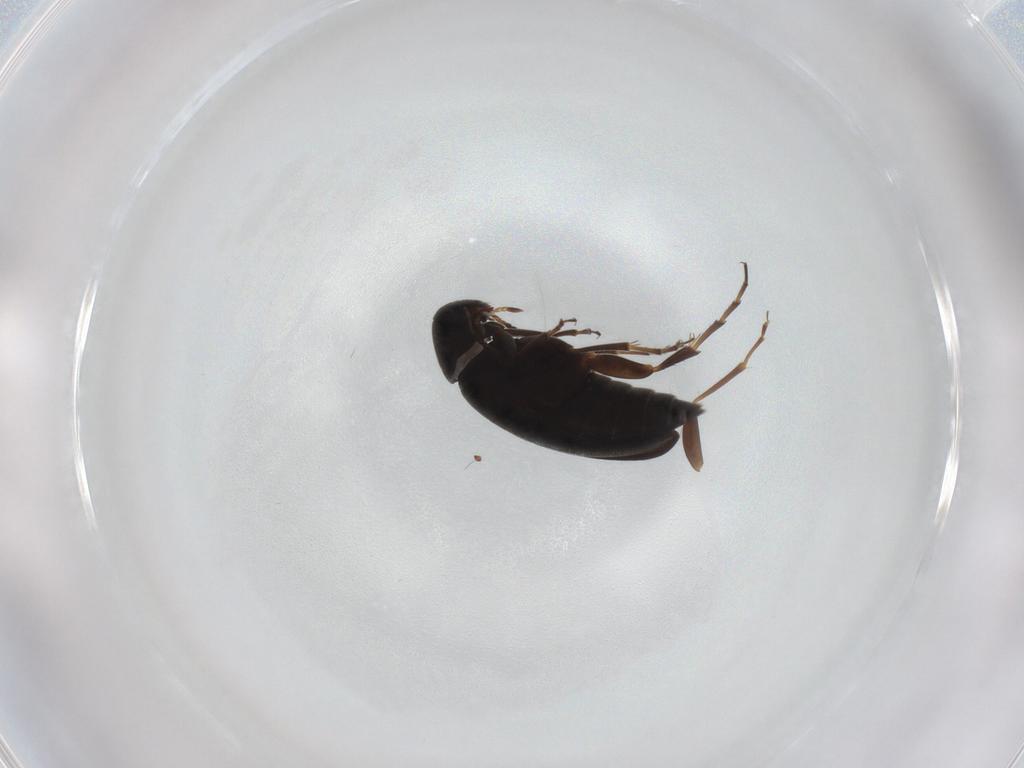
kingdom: Animalia
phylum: Arthropoda
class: Insecta
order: Coleoptera
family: Scraptiidae
